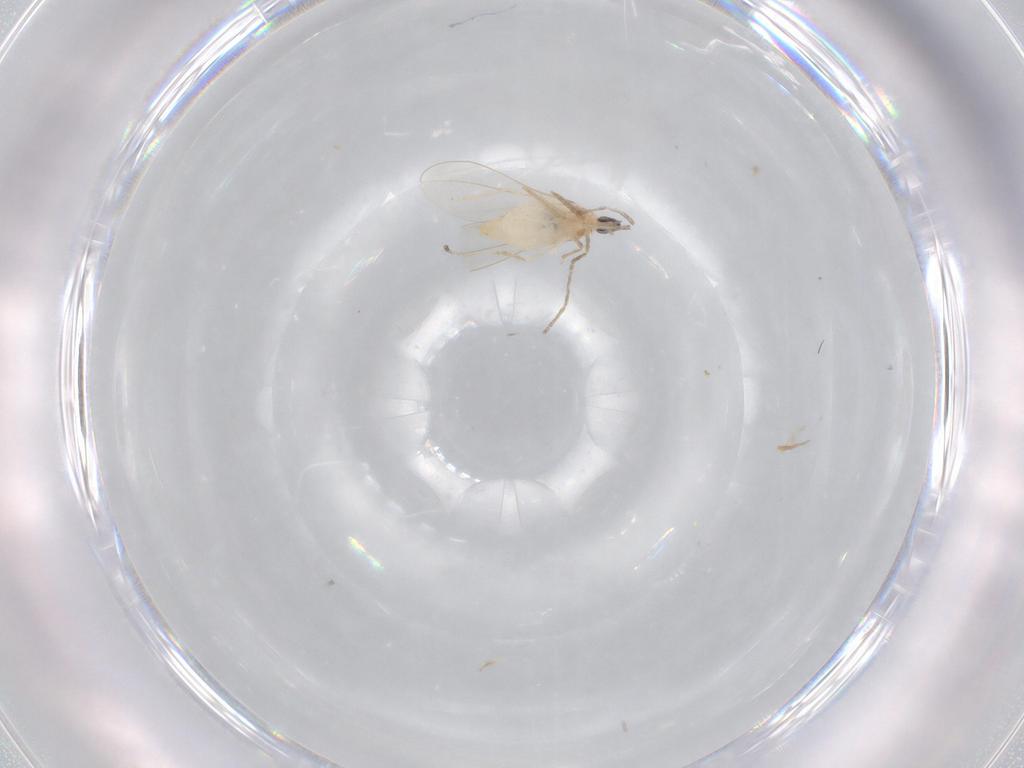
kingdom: Animalia
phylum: Arthropoda
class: Insecta
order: Diptera
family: Cecidomyiidae
